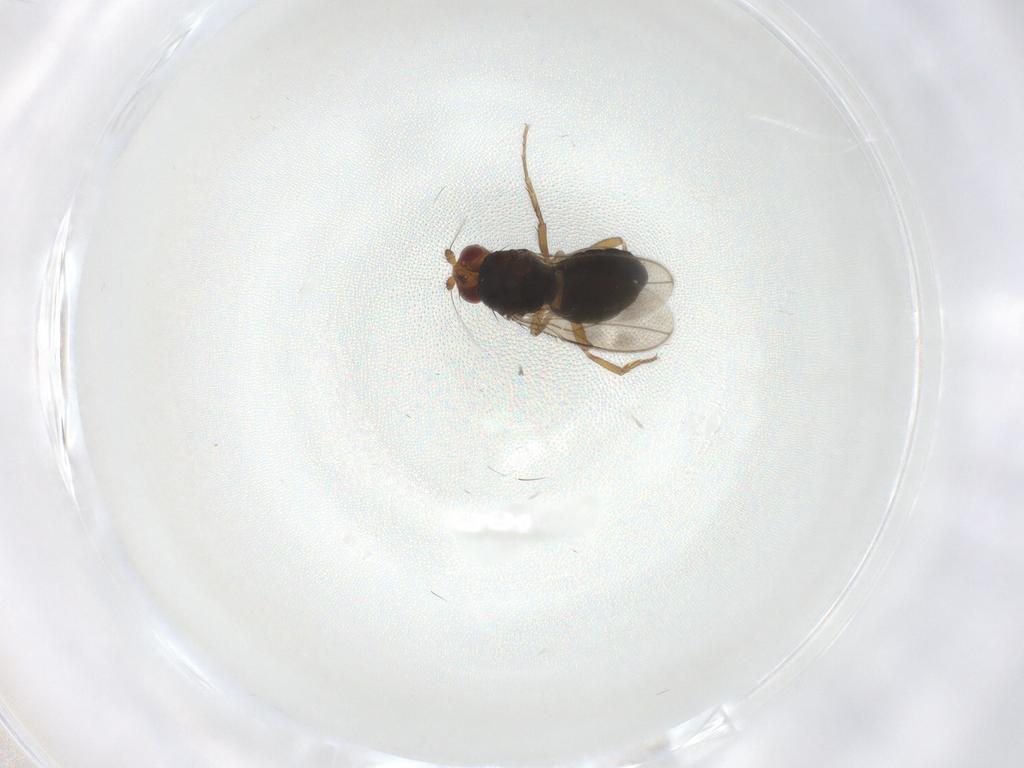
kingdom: Animalia
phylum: Arthropoda
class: Insecta
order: Diptera
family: Sphaeroceridae
